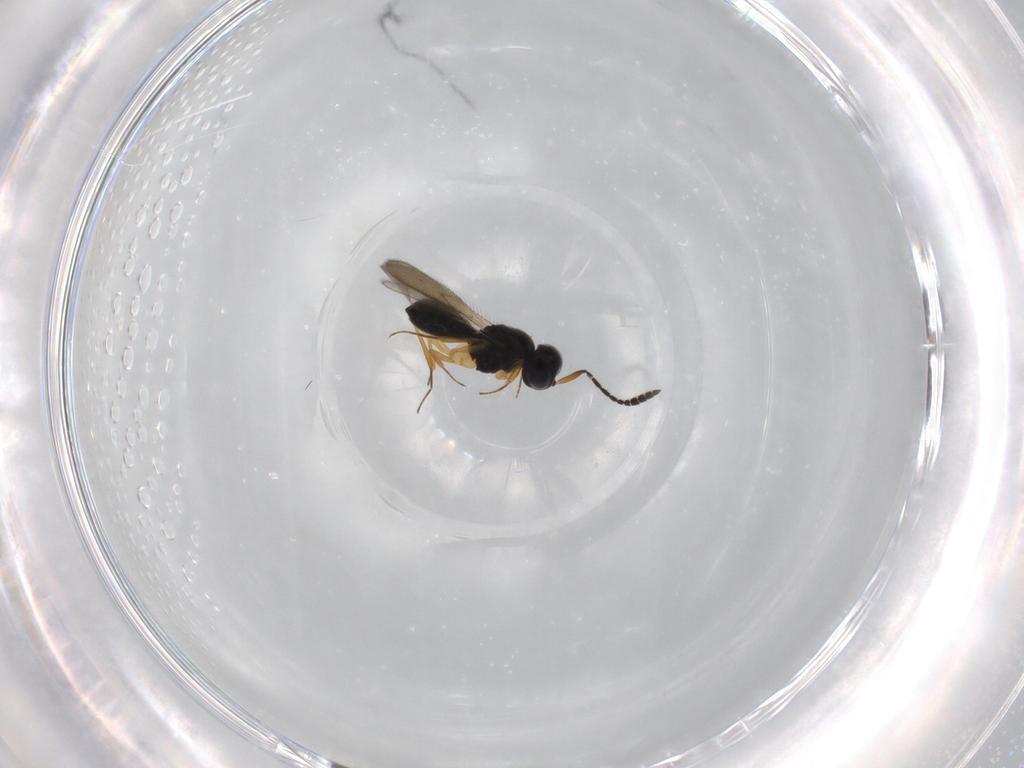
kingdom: Animalia
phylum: Arthropoda
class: Insecta
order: Hymenoptera
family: Scelionidae
